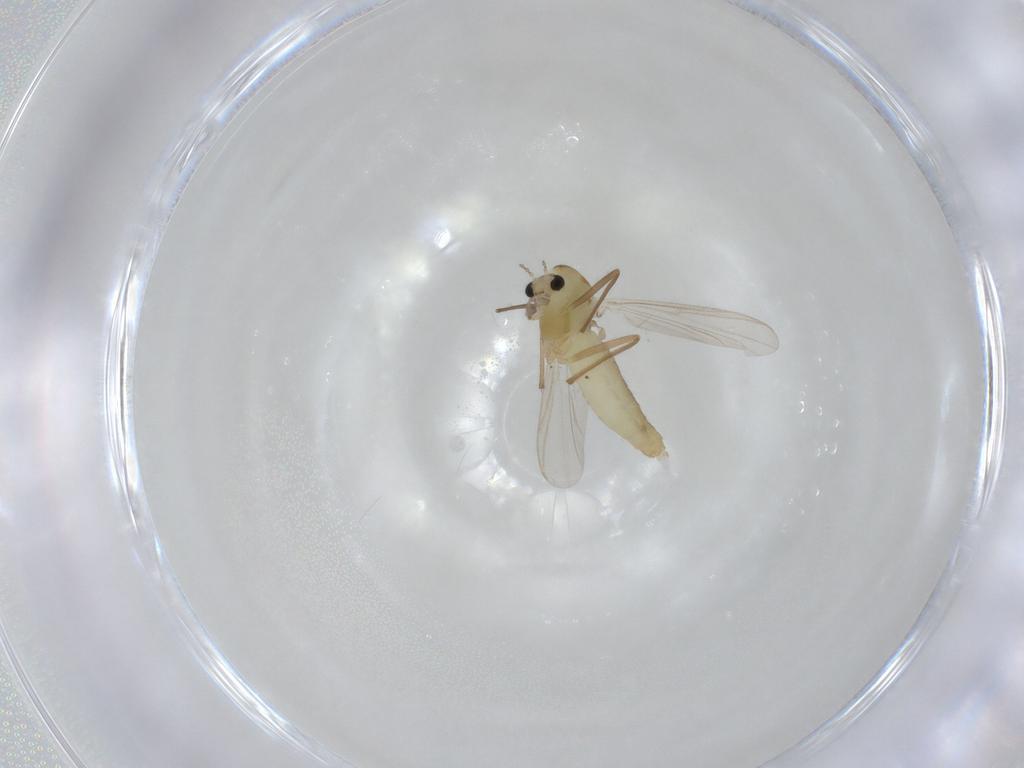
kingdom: Animalia
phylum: Arthropoda
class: Insecta
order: Diptera
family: Chironomidae
